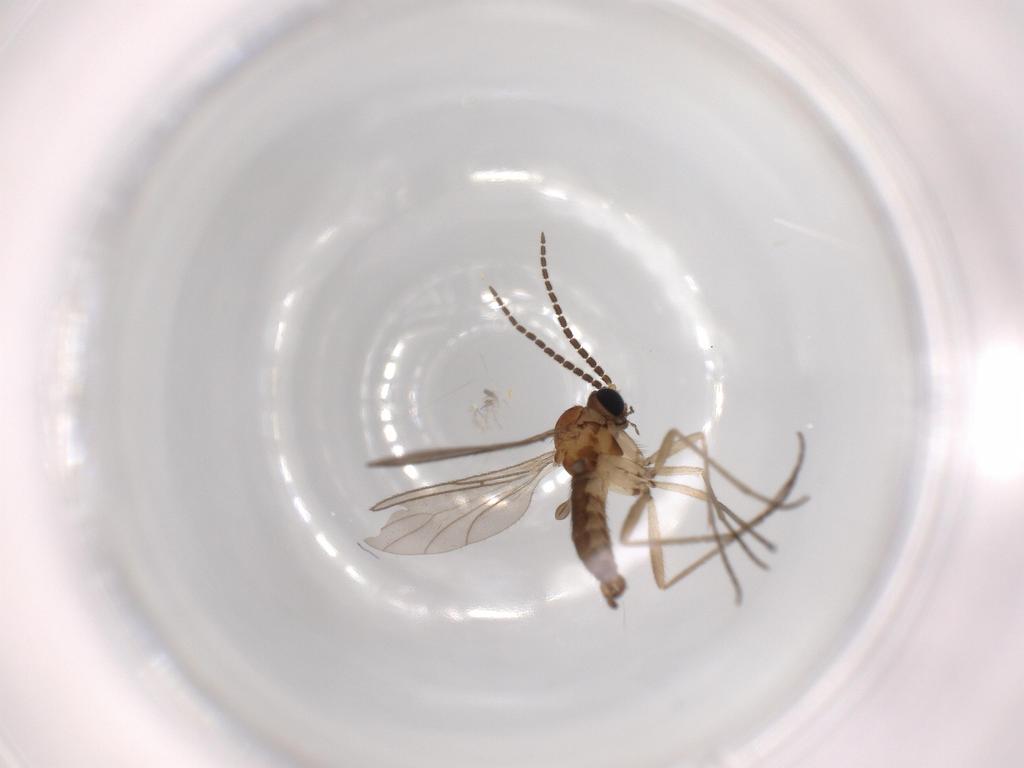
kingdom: Animalia
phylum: Arthropoda
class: Insecta
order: Diptera
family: Sciaridae
